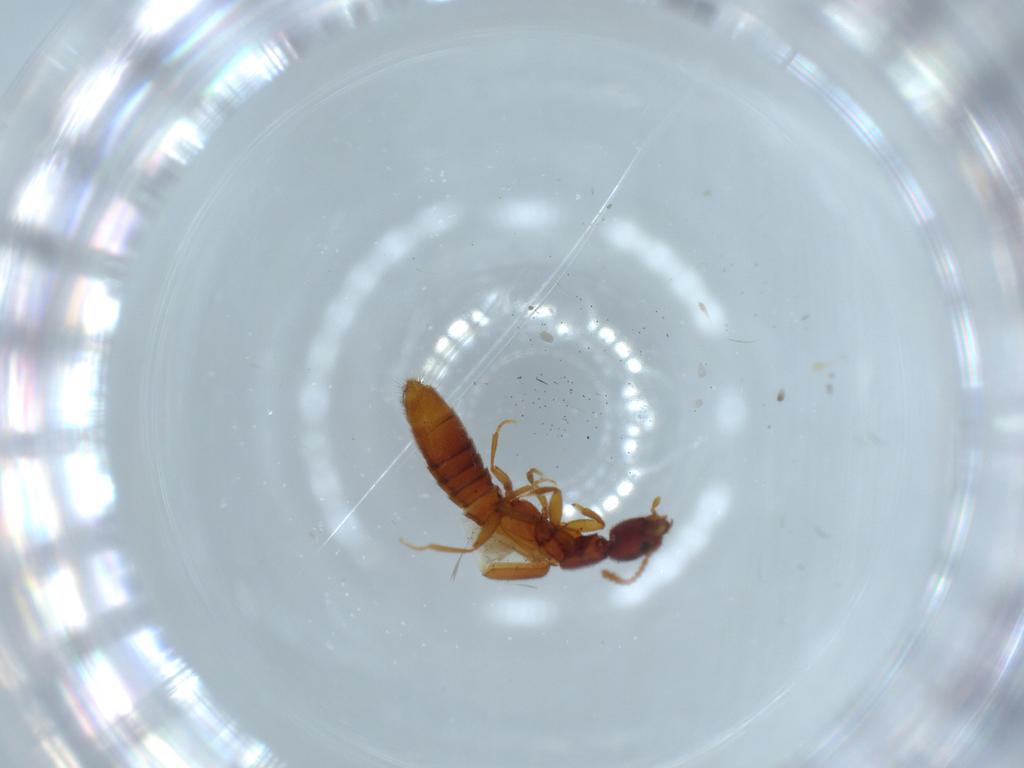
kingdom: Animalia
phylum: Arthropoda
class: Insecta
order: Coleoptera
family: Staphylinidae
